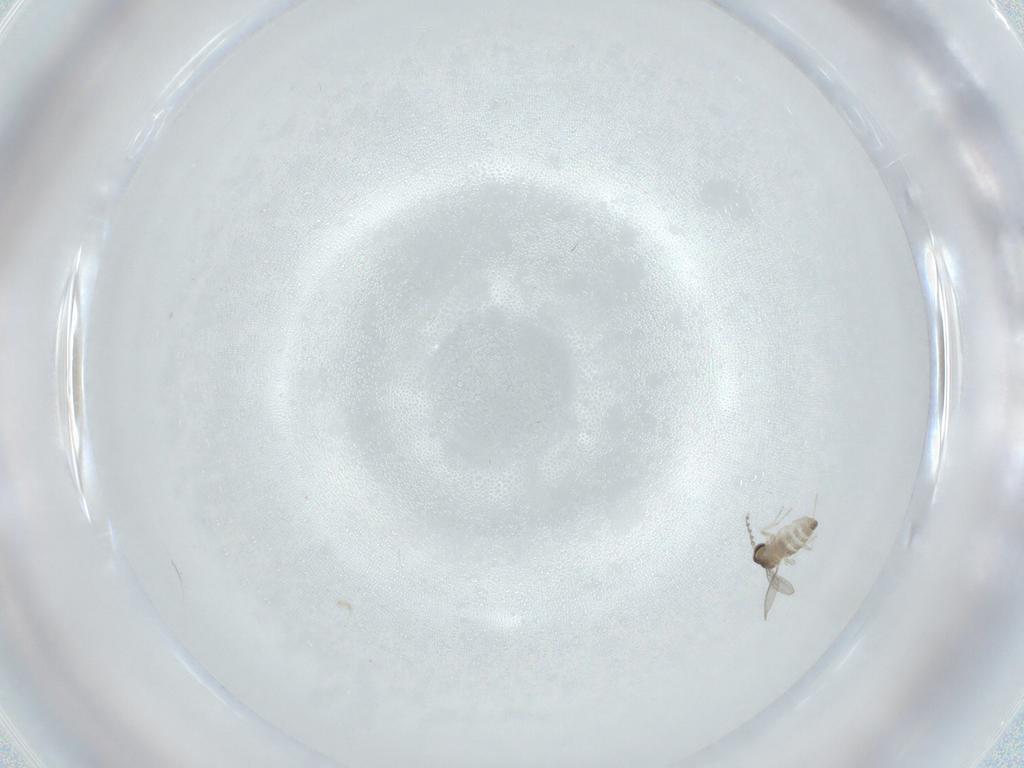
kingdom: Animalia
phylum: Arthropoda
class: Insecta
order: Diptera
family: Cecidomyiidae
